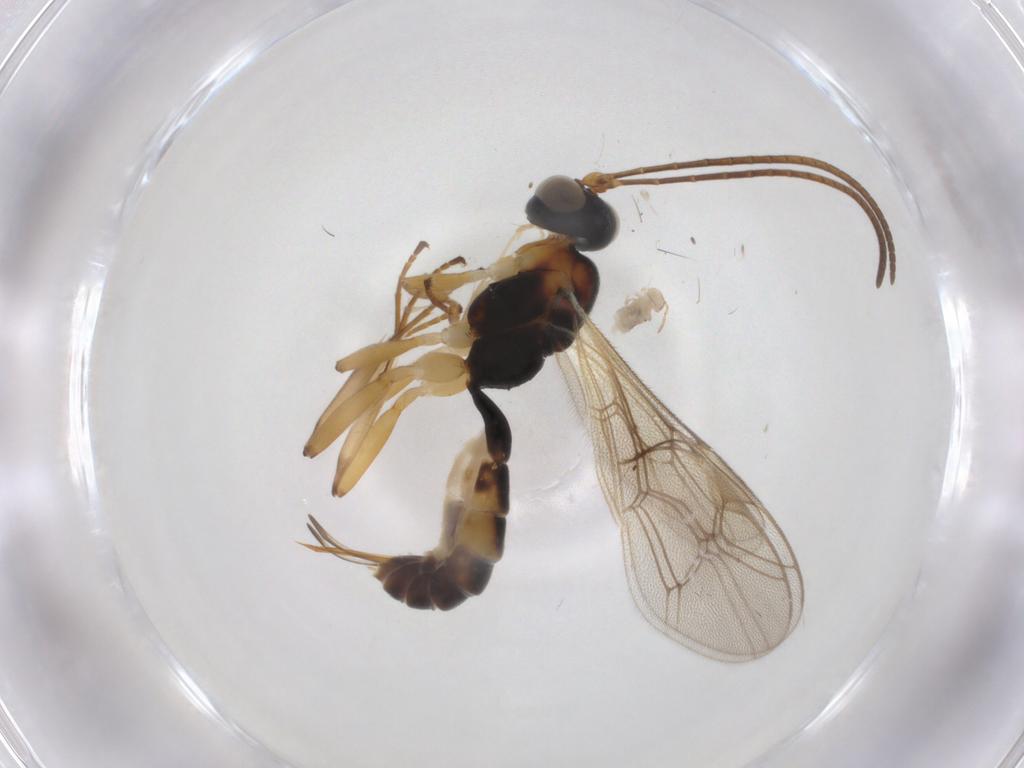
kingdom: Animalia
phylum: Arthropoda
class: Insecta
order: Hymenoptera
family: Ichneumonidae
